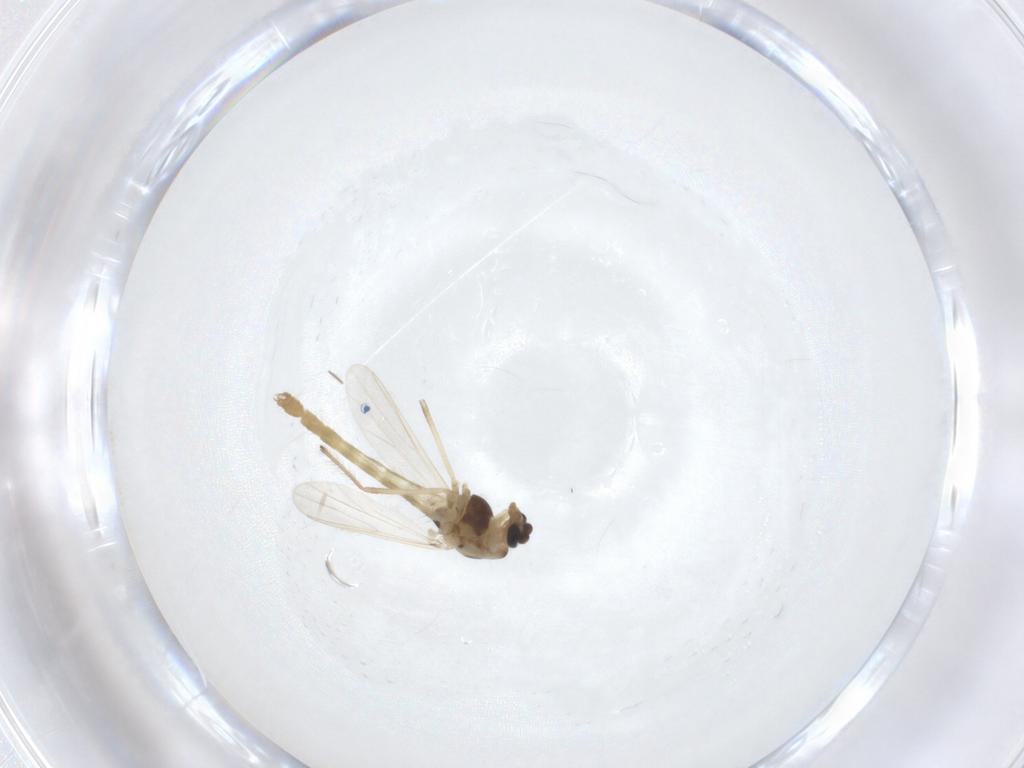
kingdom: Animalia
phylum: Arthropoda
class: Insecta
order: Diptera
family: Chironomidae
